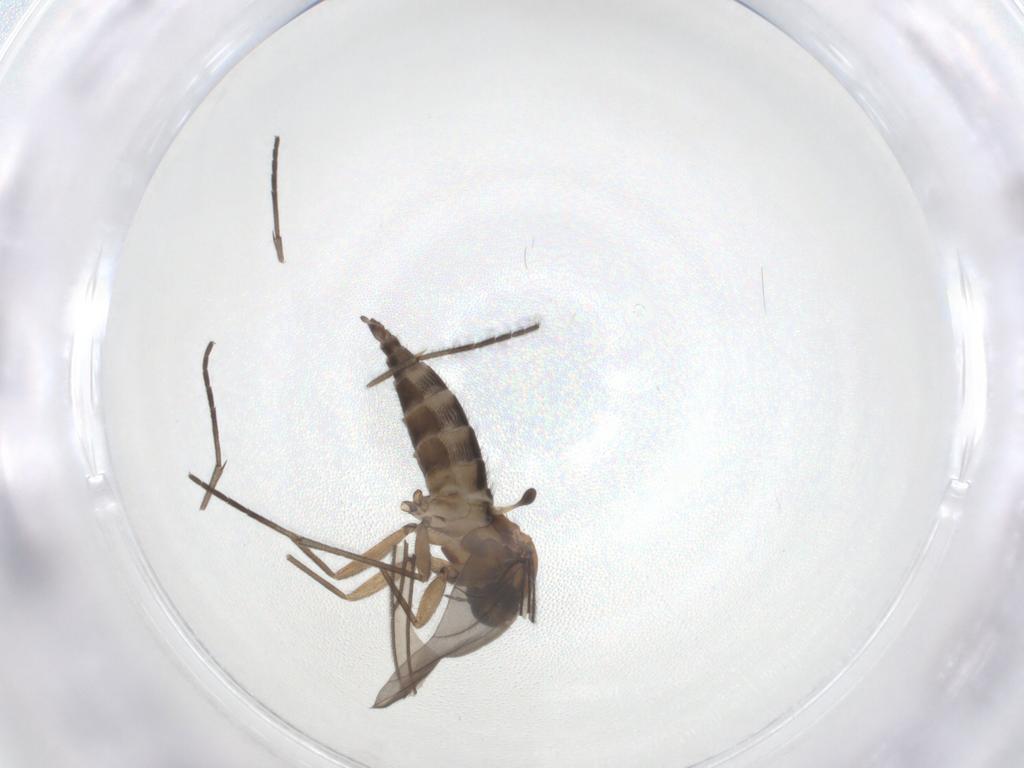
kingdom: Animalia
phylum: Arthropoda
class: Insecta
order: Diptera
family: Sciaridae
